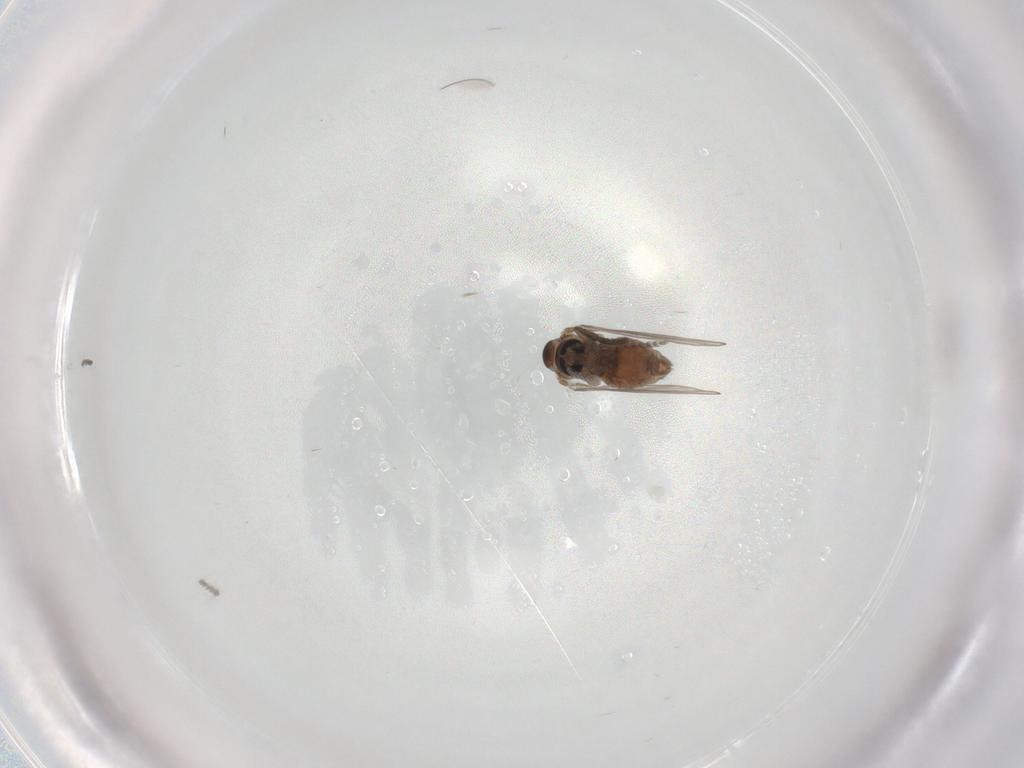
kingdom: Animalia
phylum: Arthropoda
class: Insecta
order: Diptera
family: Psychodidae
